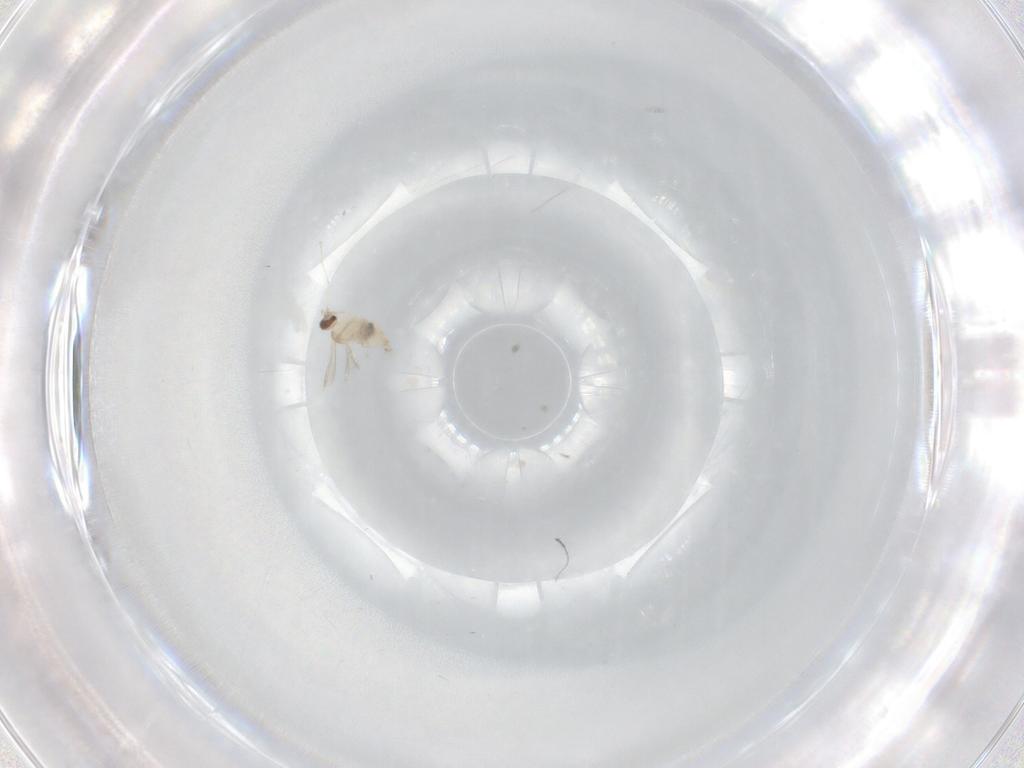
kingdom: Animalia
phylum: Arthropoda
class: Insecta
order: Diptera
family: Cecidomyiidae
